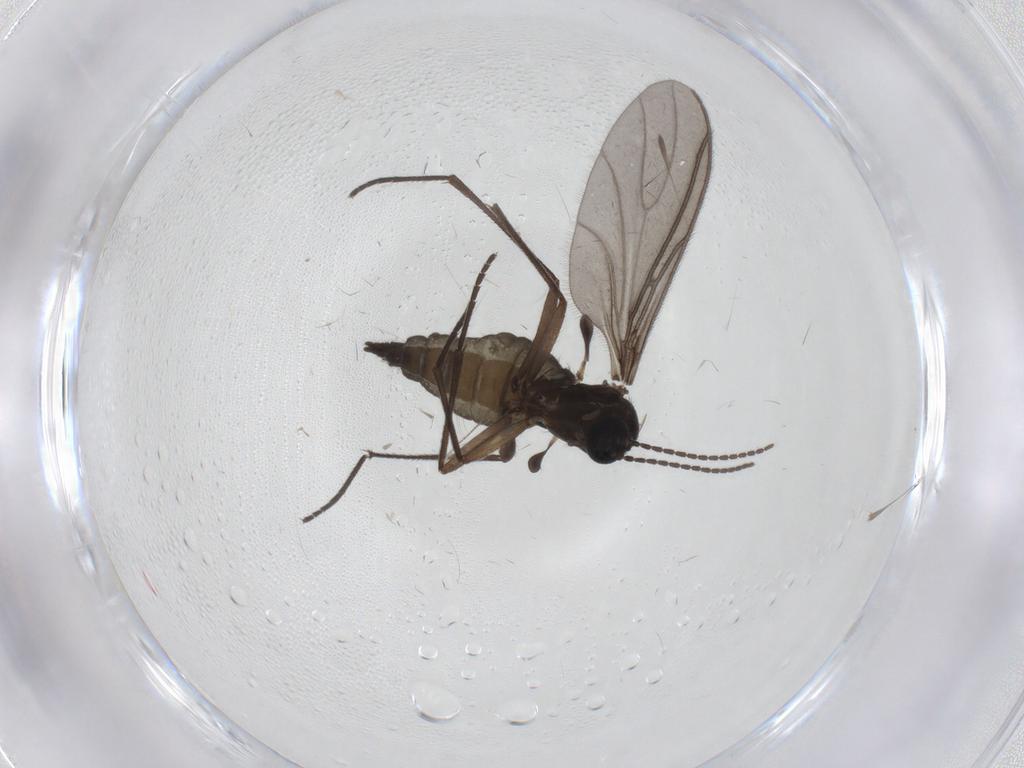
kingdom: Animalia
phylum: Arthropoda
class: Insecta
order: Diptera
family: Sciaridae
